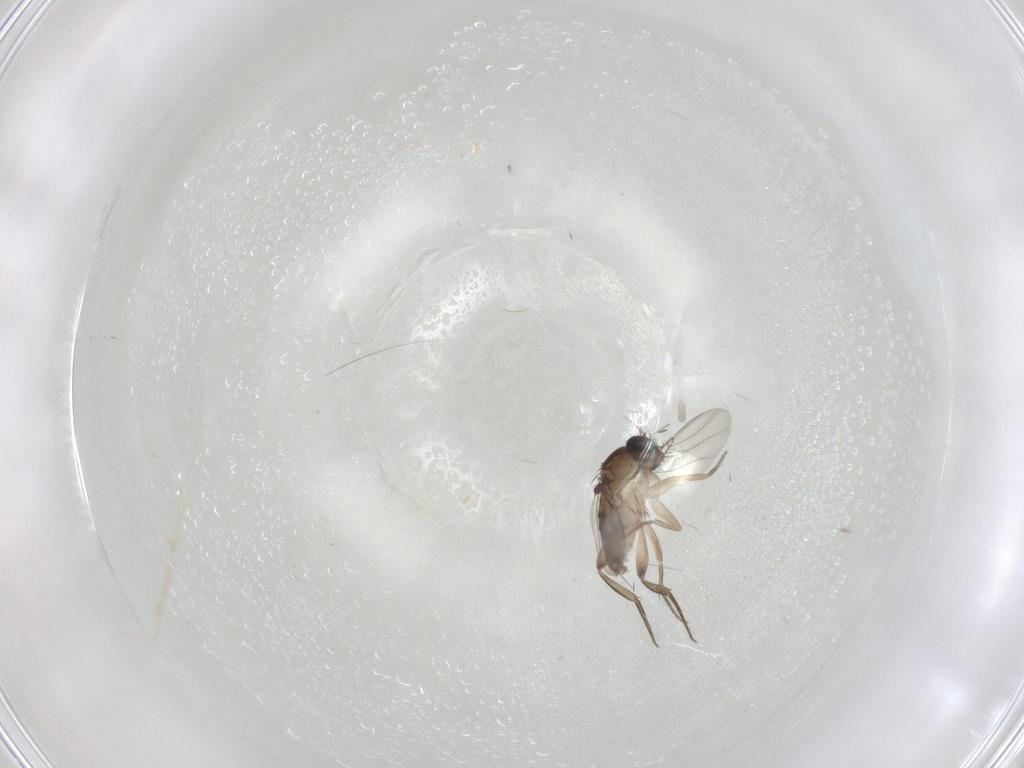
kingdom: Animalia
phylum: Arthropoda
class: Insecta
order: Diptera
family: Phoridae
